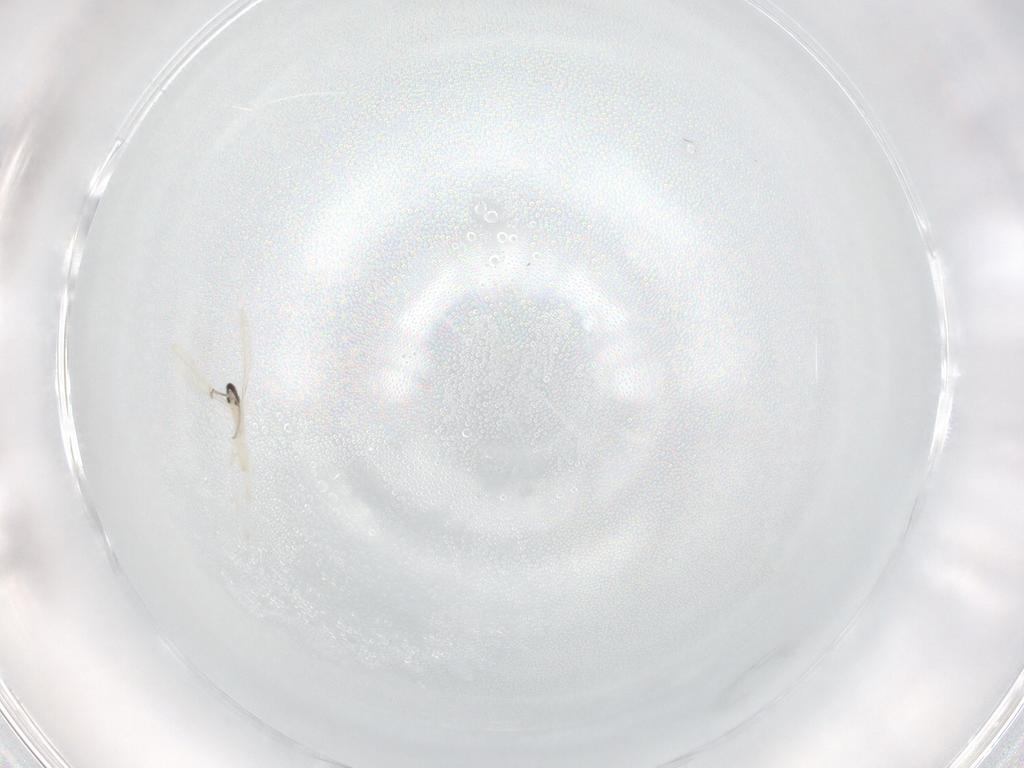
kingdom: Animalia
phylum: Arthropoda
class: Insecta
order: Diptera
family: Cecidomyiidae
